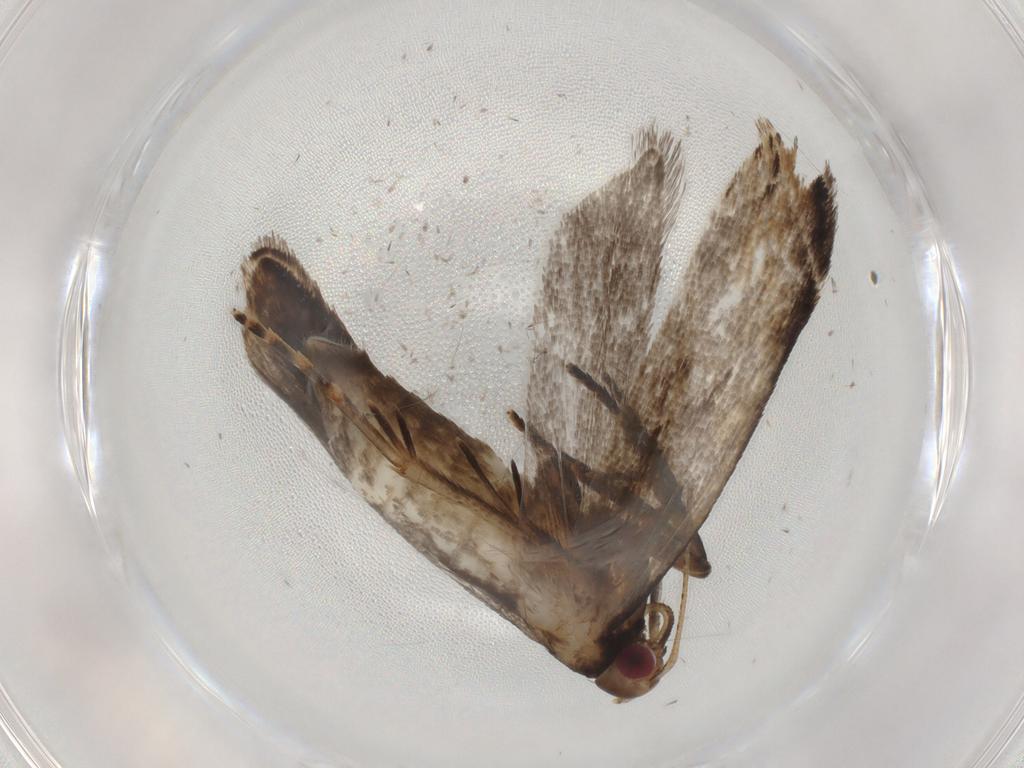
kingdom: Animalia
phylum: Arthropoda
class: Insecta
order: Lepidoptera
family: Gelechiidae
